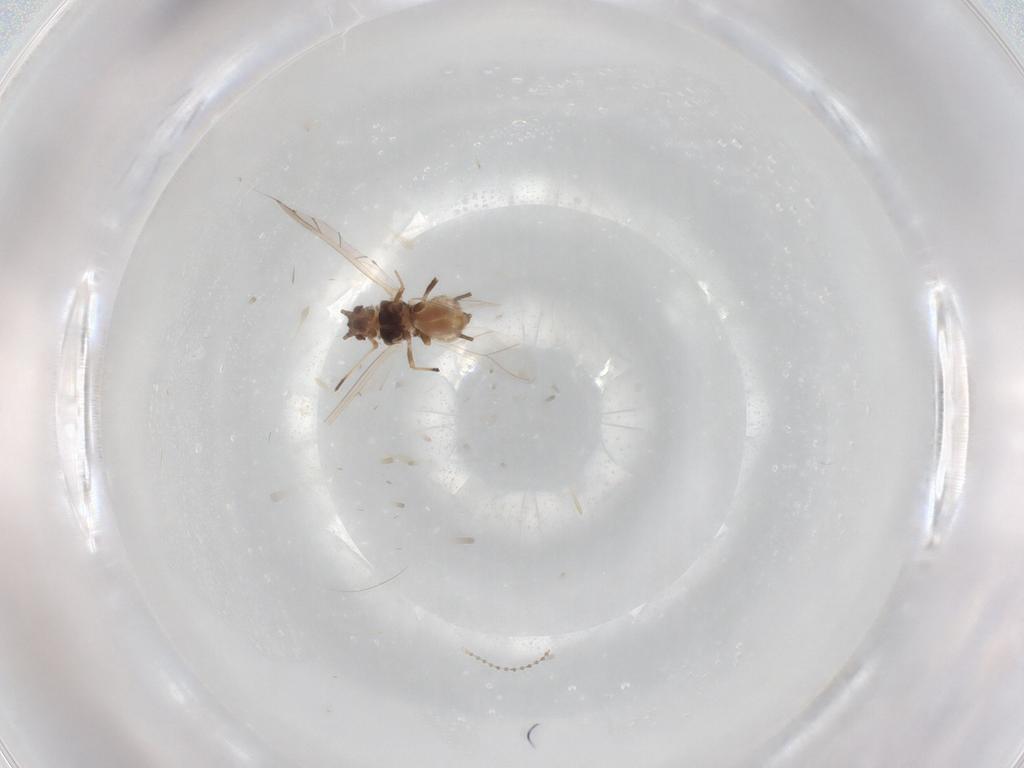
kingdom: Animalia
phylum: Arthropoda
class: Insecta
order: Hemiptera
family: Aphididae
